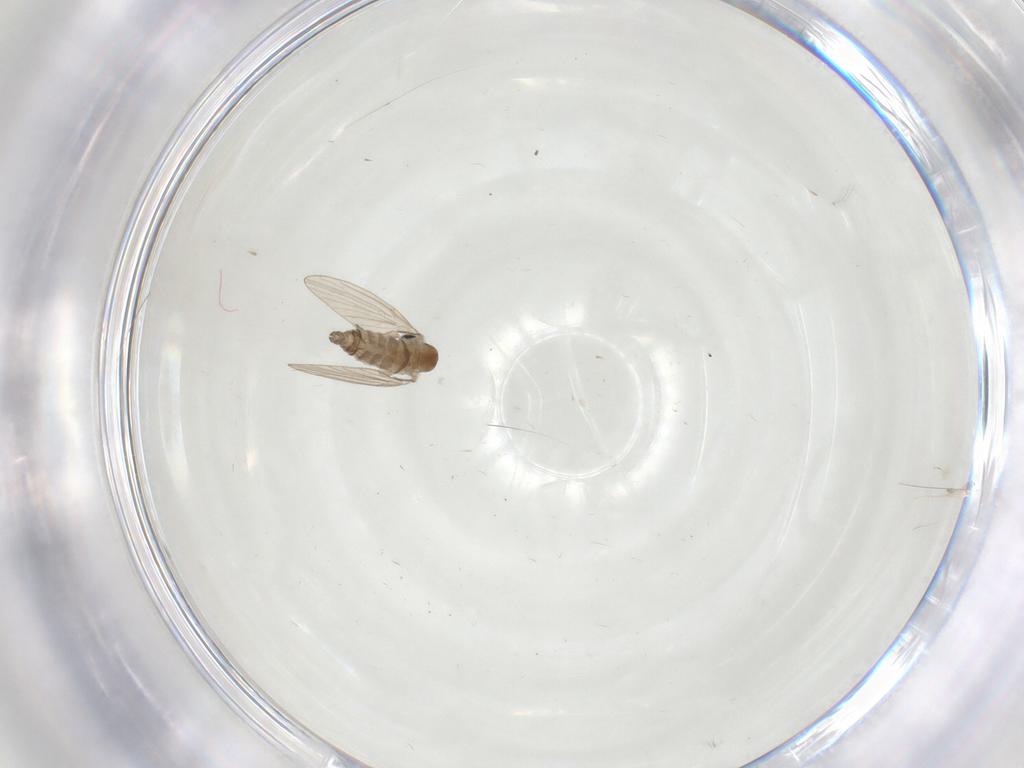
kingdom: Animalia
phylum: Arthropoda
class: Insecta
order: Diptera
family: Psychodidae
